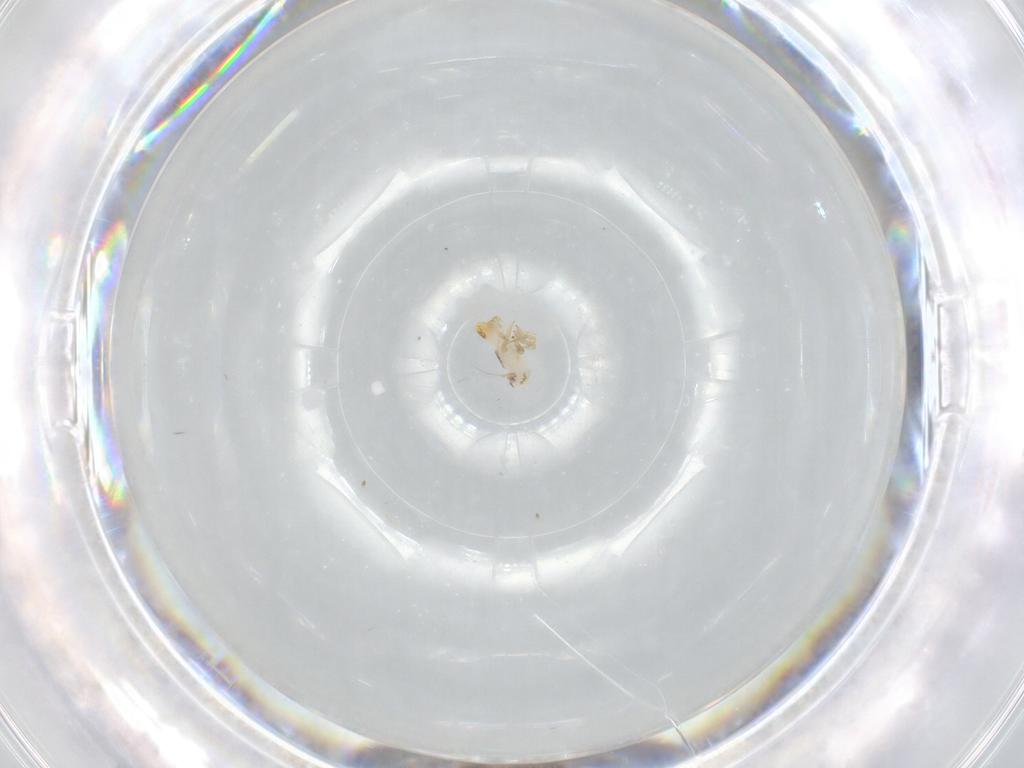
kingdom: Animalia
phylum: Arthropoda
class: Insecta
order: Hemiptera
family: Delphacidae
